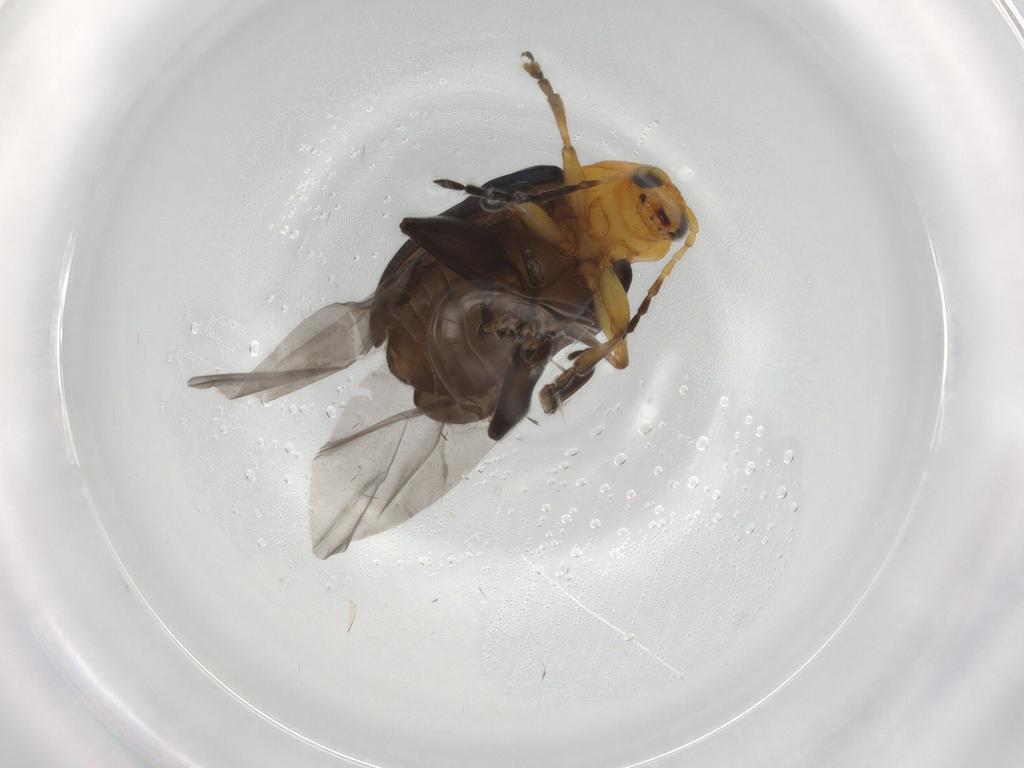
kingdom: Animalia
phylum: Arthropoda
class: Insecta
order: Coleoptera
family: Chrysomelidae
